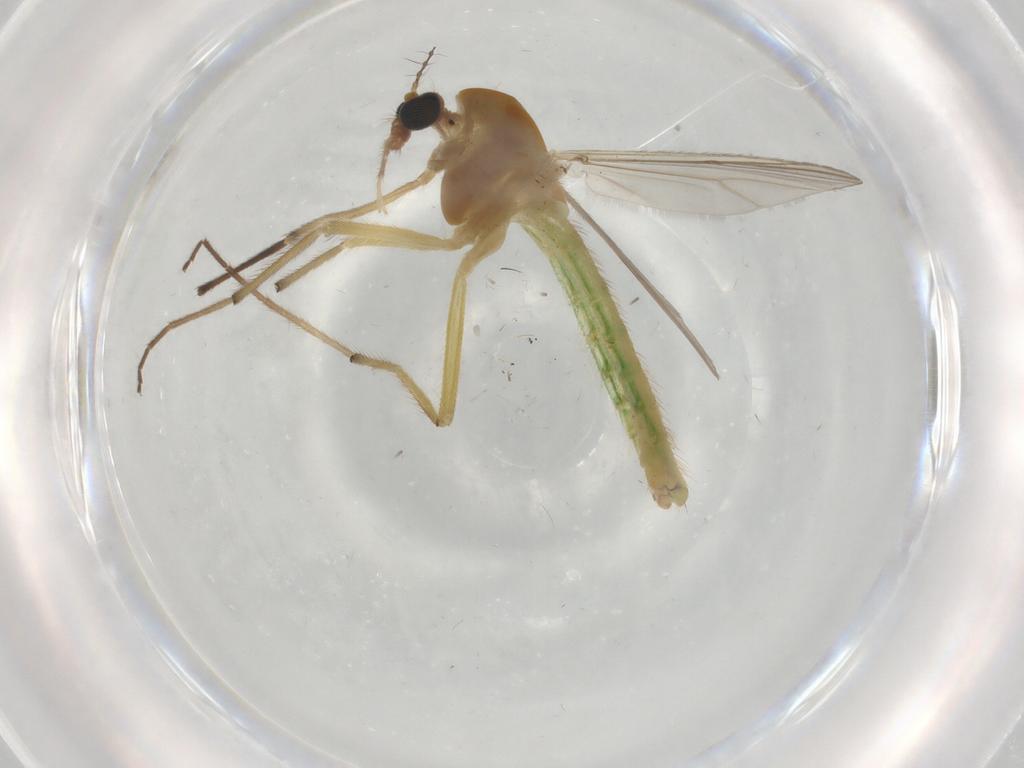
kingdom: Animalia
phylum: Arthropoda
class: Insecta
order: Diptera
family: Chironomidae
